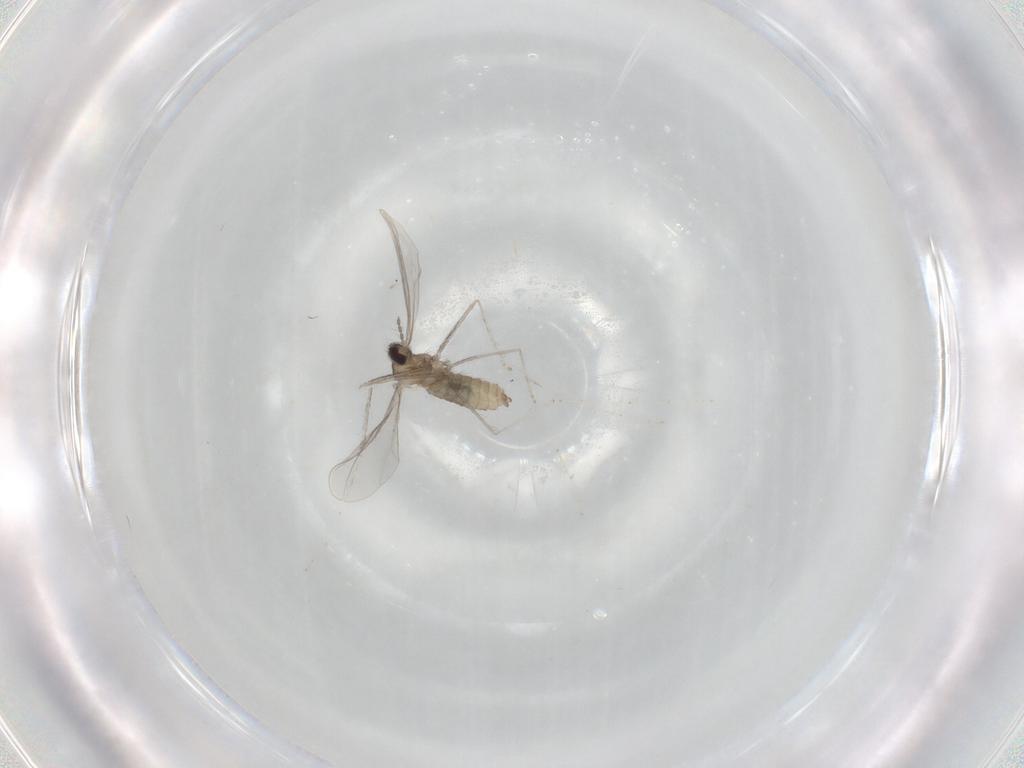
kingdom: Animalia
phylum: Arthropoda
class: Insecta
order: Diptera
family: Cecidomyiidae
